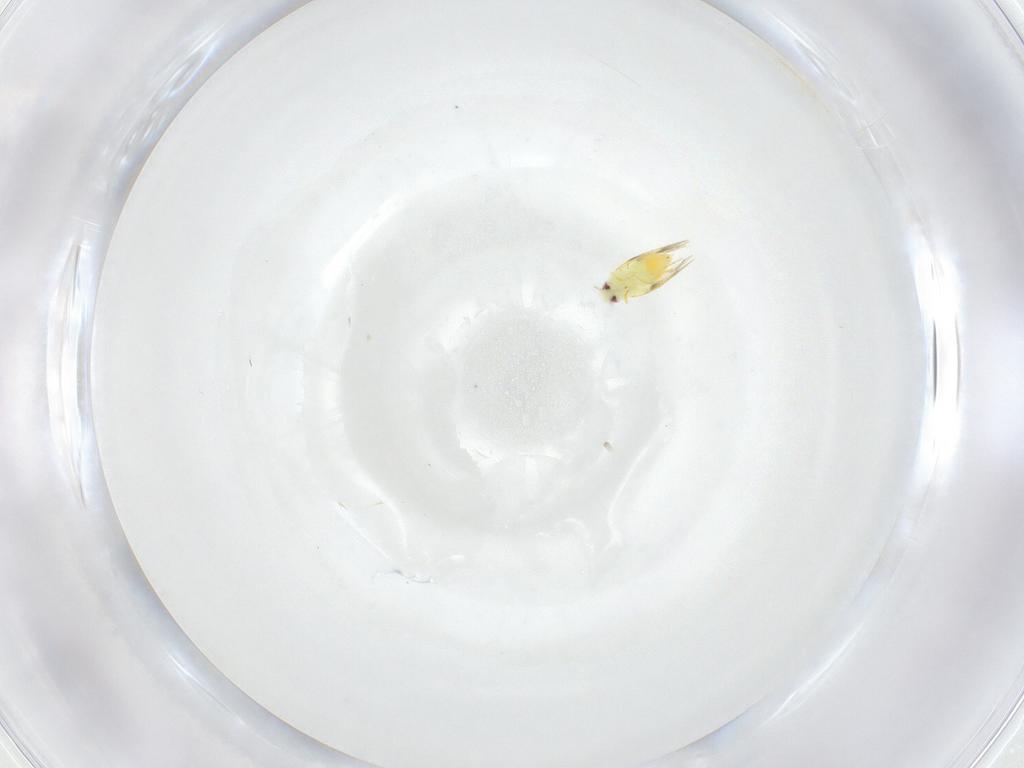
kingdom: Animalia
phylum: Arthropoda
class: Insecta
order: Hemiptera
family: Aleyrodidae
